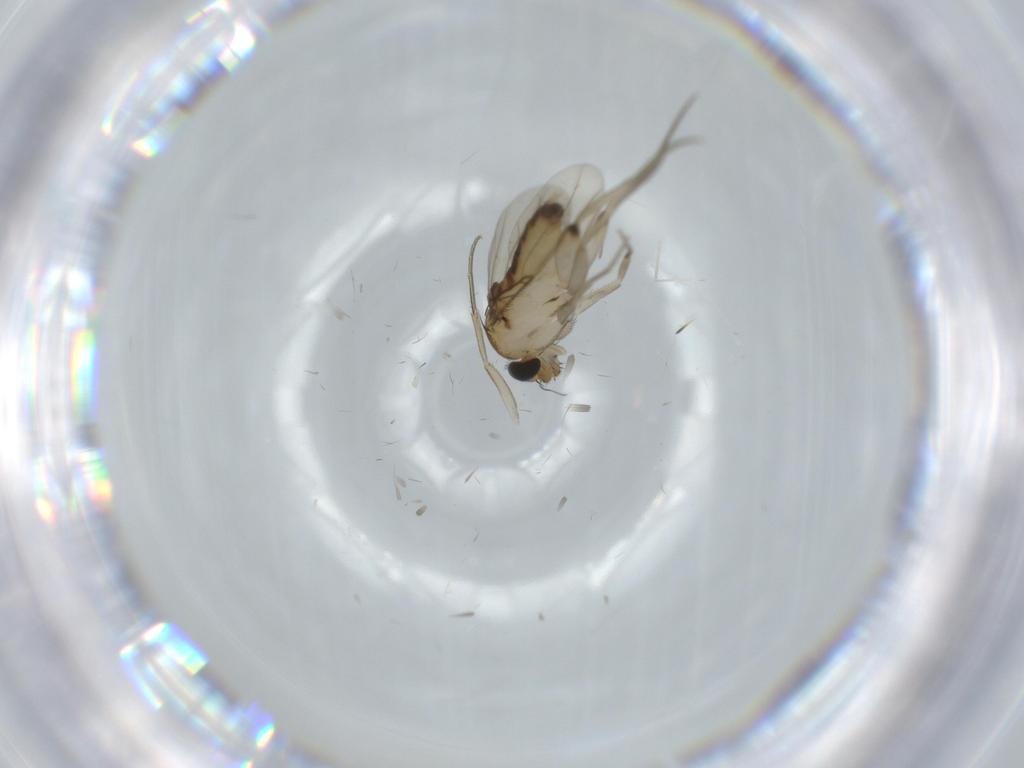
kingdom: Animalia
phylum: Arthropoda
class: Insecta
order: Diptera
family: Phoridae
